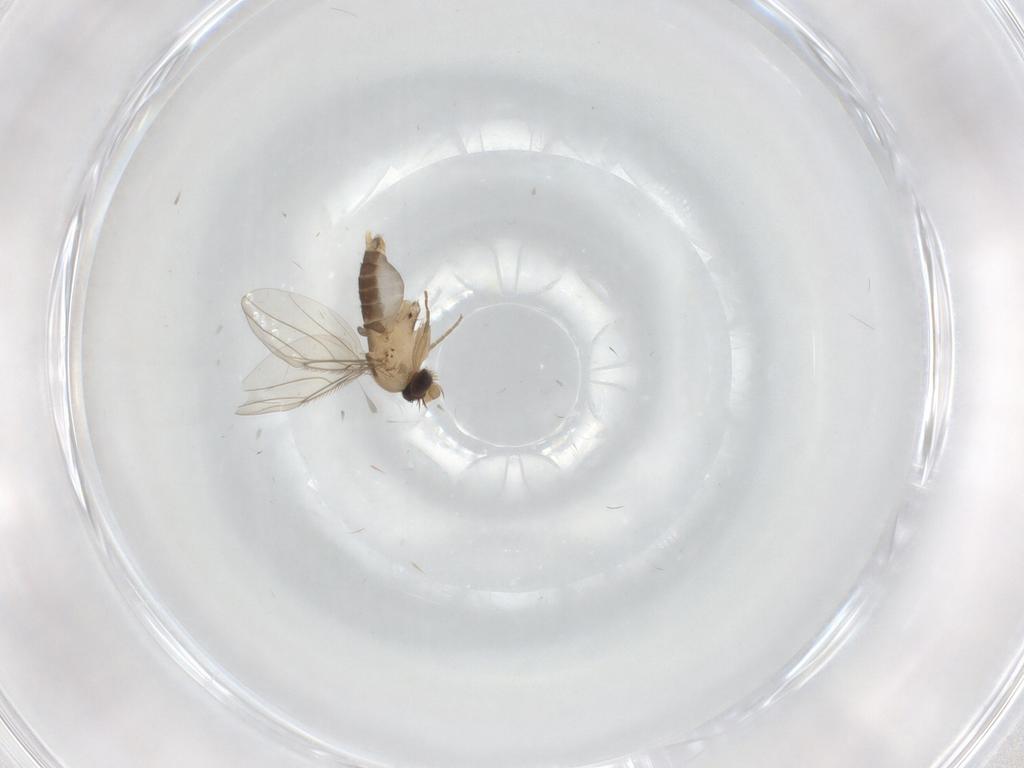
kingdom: Animalia
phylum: Arthropoda
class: Insecta
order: Diptera
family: Phoridae
